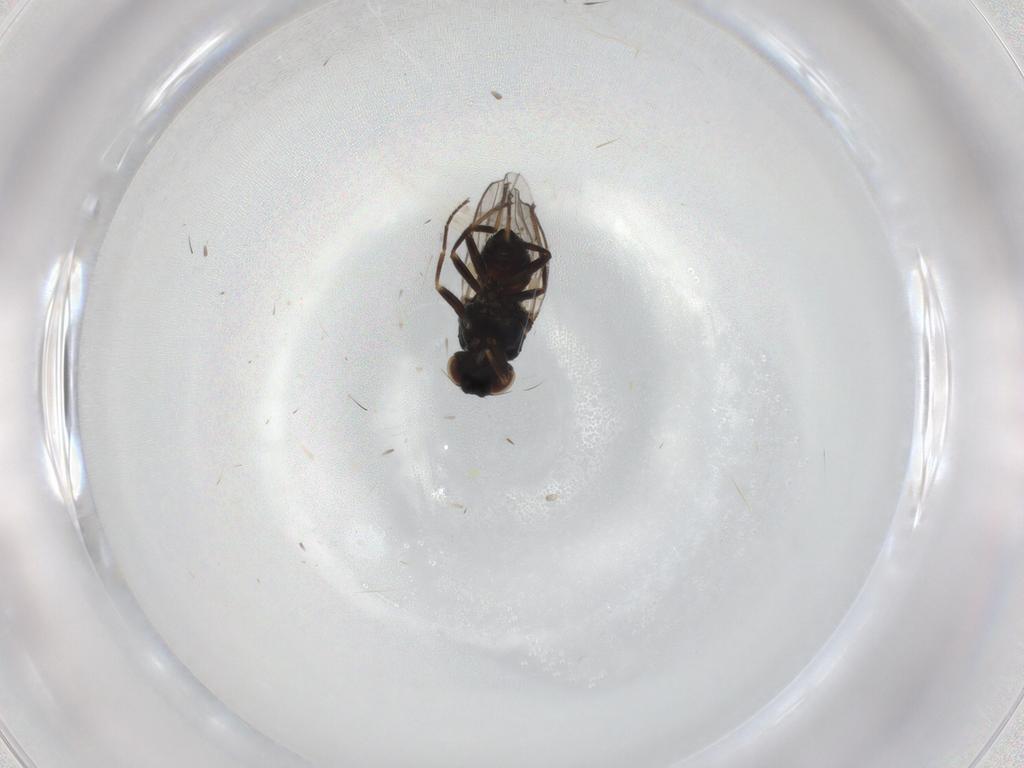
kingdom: Animalia
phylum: Arthropoda
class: Insecta
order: Diptera
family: Chloropidae
